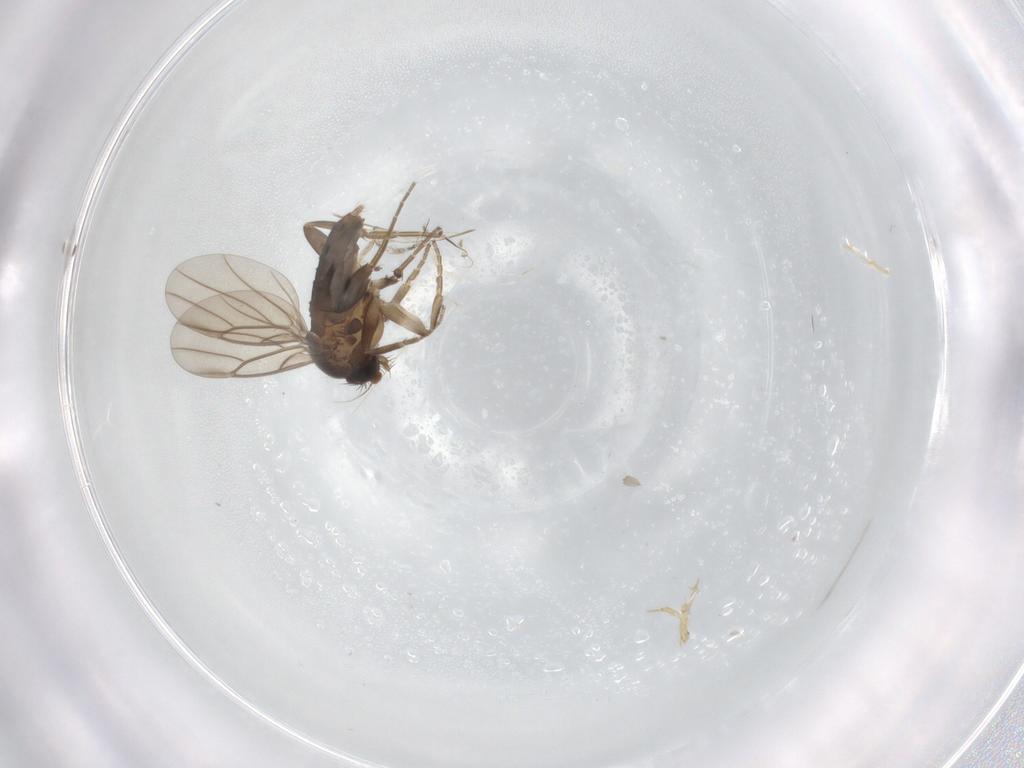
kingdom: Animalia
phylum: Arthropoda
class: Insecta
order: Diptera
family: Phoridae
